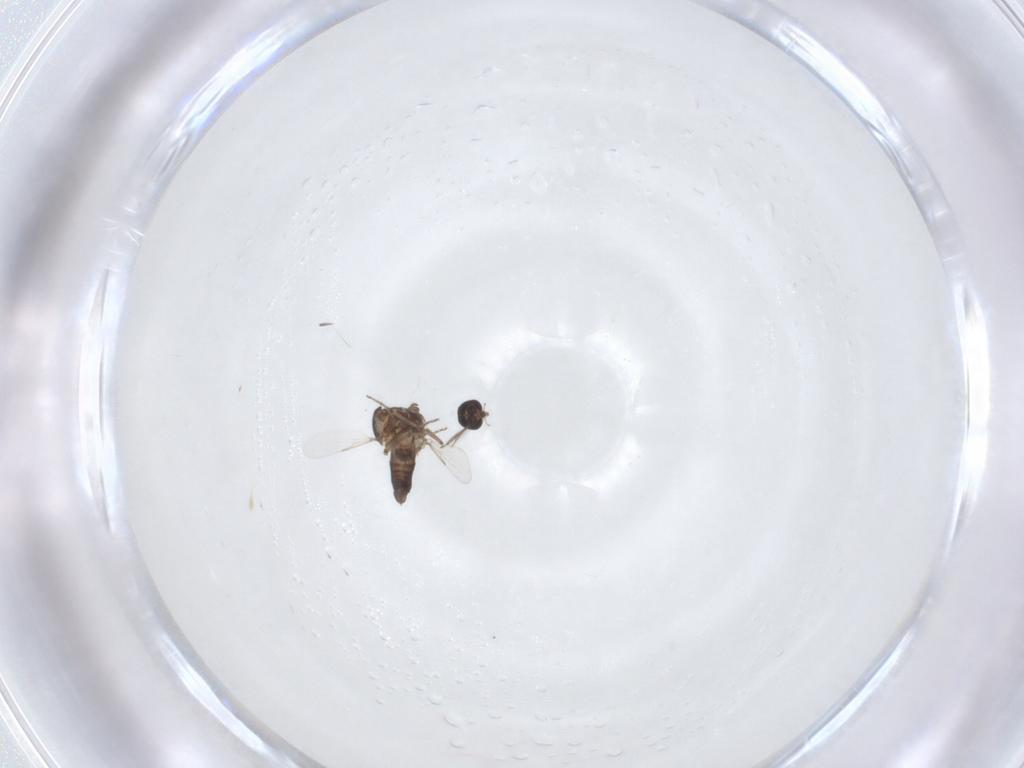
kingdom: Animalia
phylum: Arthropoda
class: Insecta
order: Diptera
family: Ceratopogonidae
